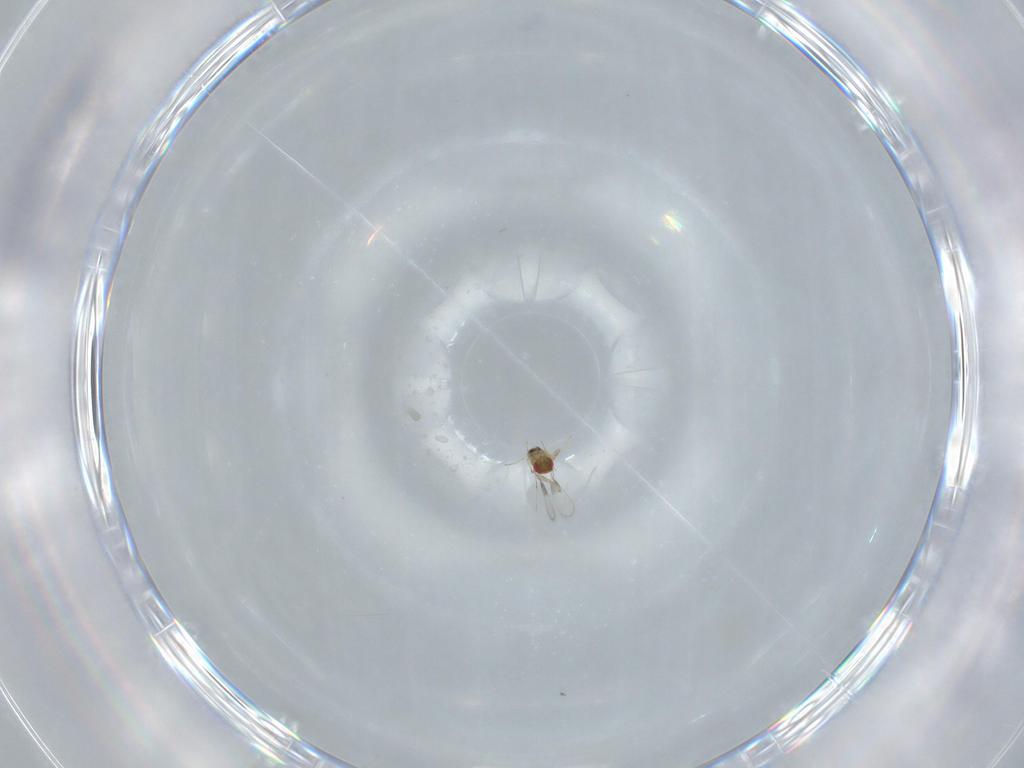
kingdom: Animalia
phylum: Arthropoda
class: Insecta
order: Hymenoptera
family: Trichogrammatidae
